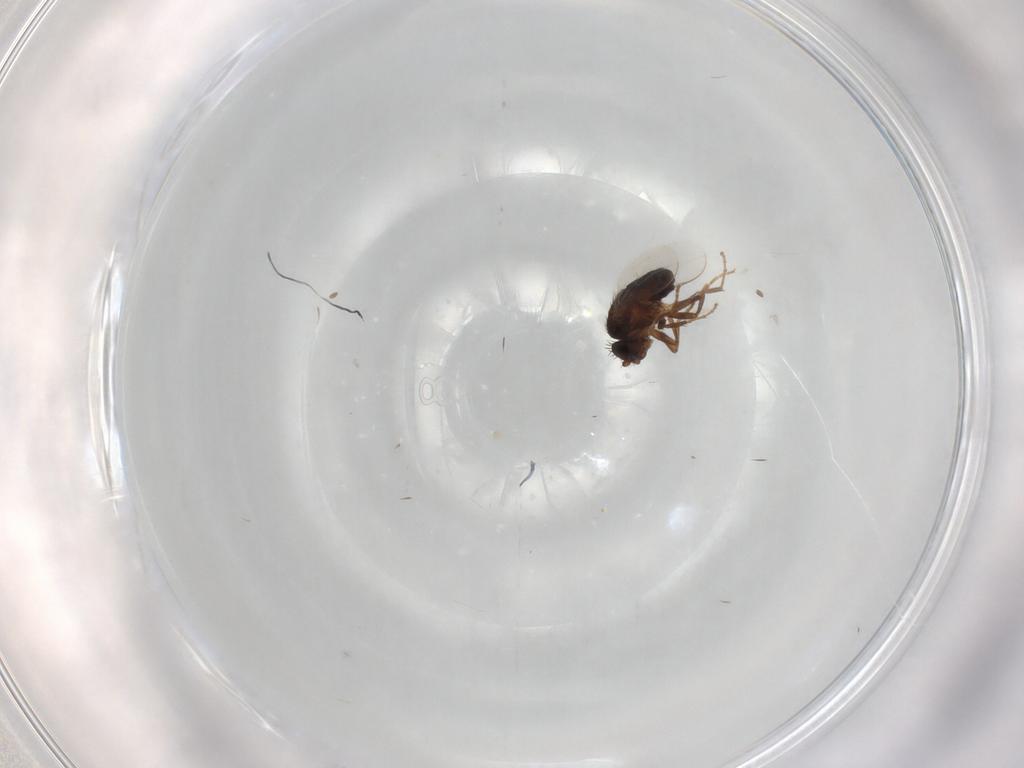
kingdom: Animalia
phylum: Arthropoda
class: Insecta
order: Diptera
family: Sphaeroceridae
